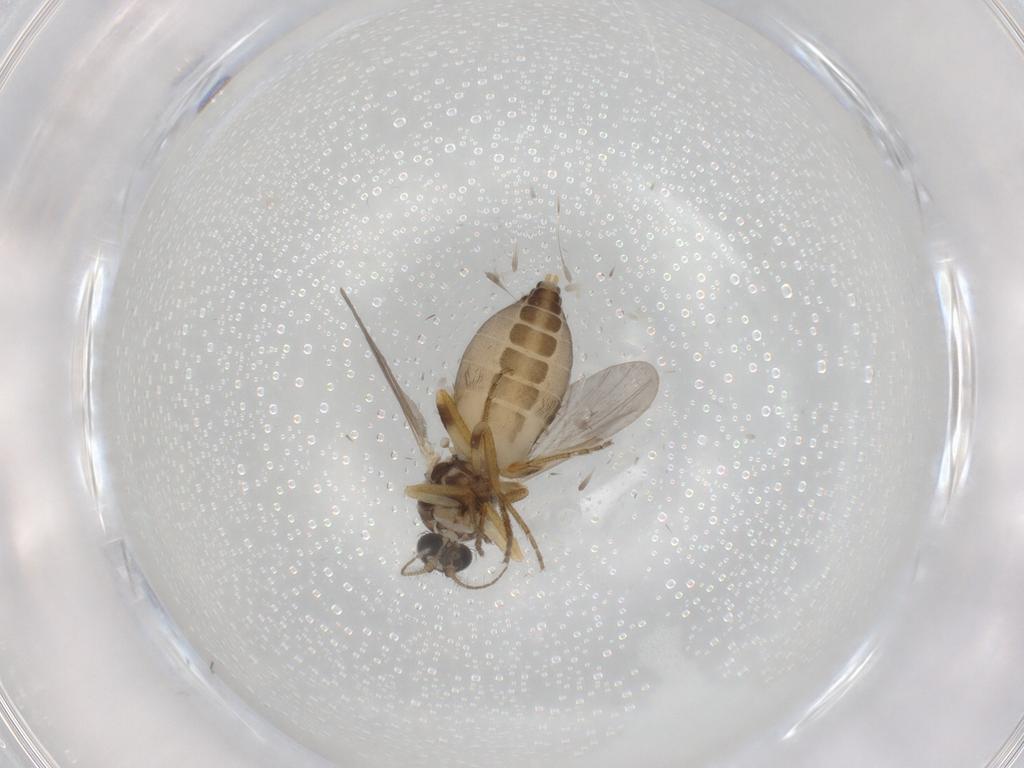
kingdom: Animalia
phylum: Arthropoda
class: Insecta
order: Diptera
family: Ceratopogonidae
